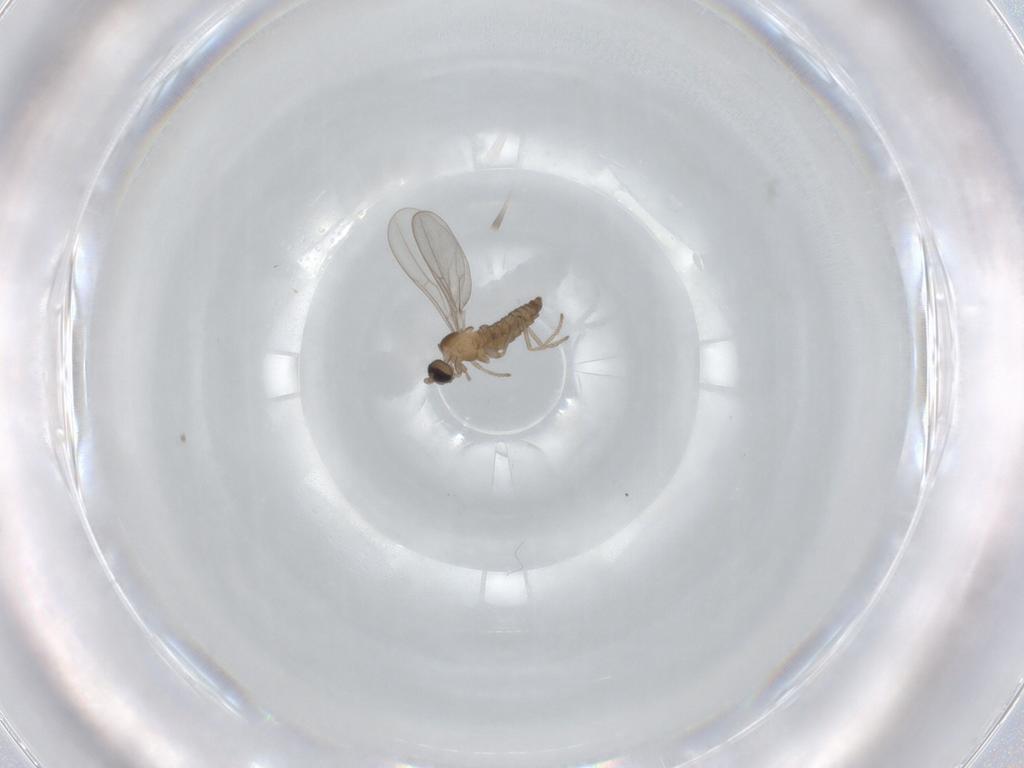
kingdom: Animalia
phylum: Arthropoda
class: Insecta
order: Diptera
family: Cecidomyiidae
